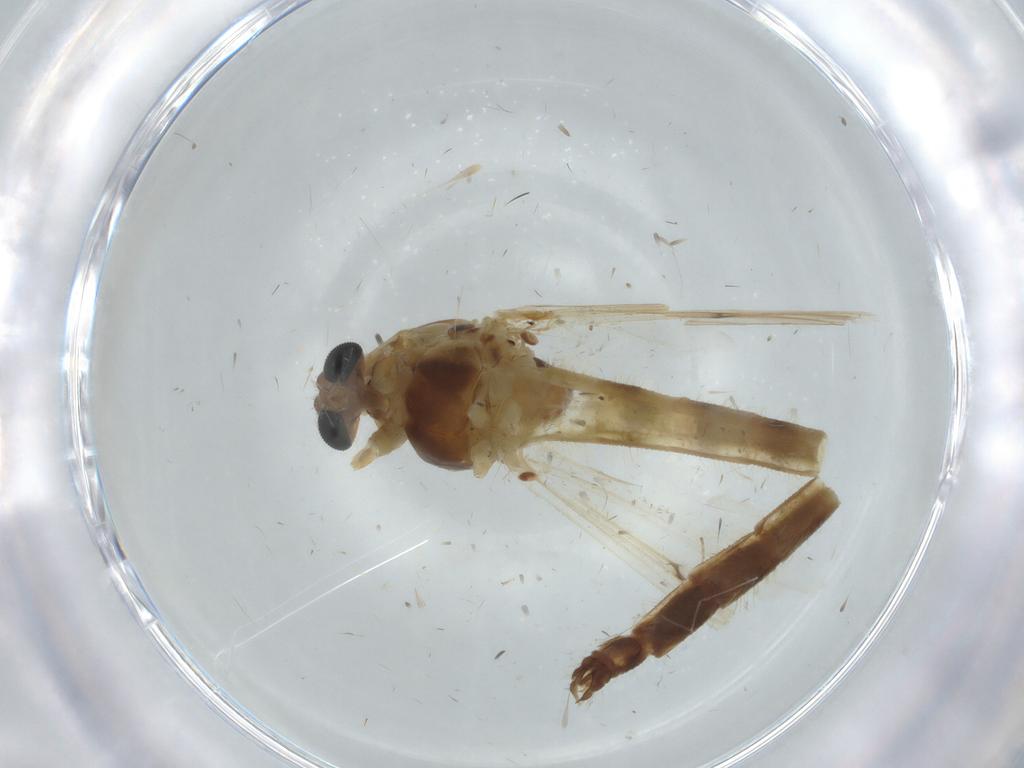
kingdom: Animalia
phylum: Arthropoda
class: Insecta
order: Diptera
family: Chironomidae
